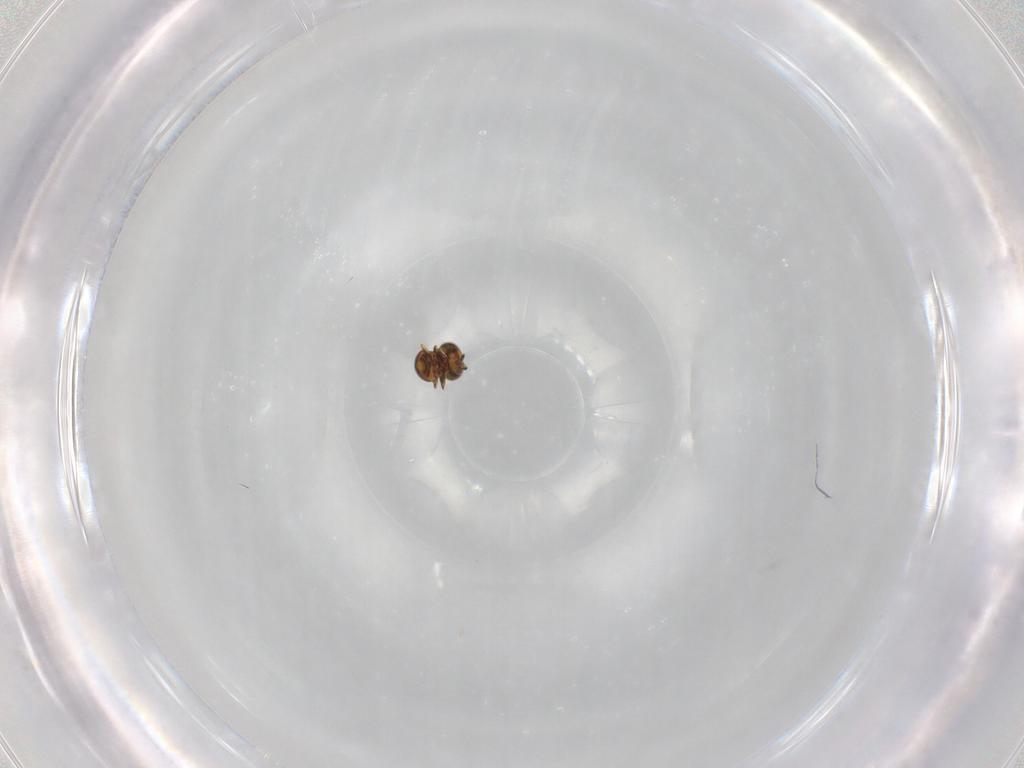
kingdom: Animalia
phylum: Arthropoda
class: Insecta
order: Hymenoptera
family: Scelionidae
